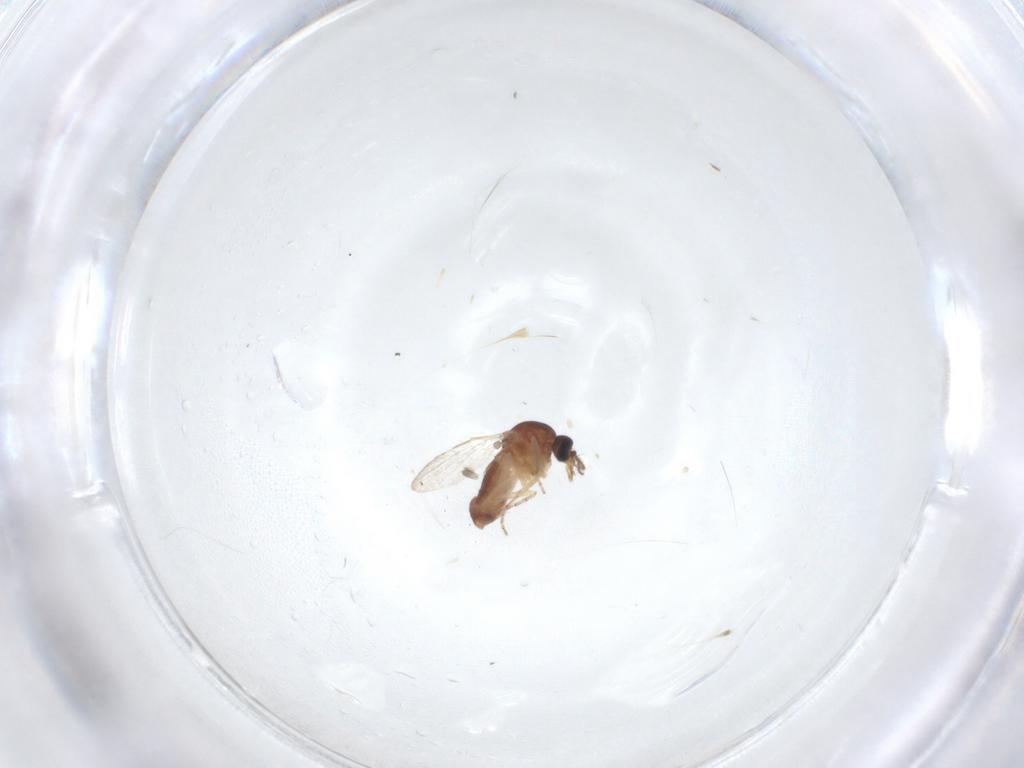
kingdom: Animalia
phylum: Arthropoda
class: Insecta
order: Diptera
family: Ceratopogonidae
